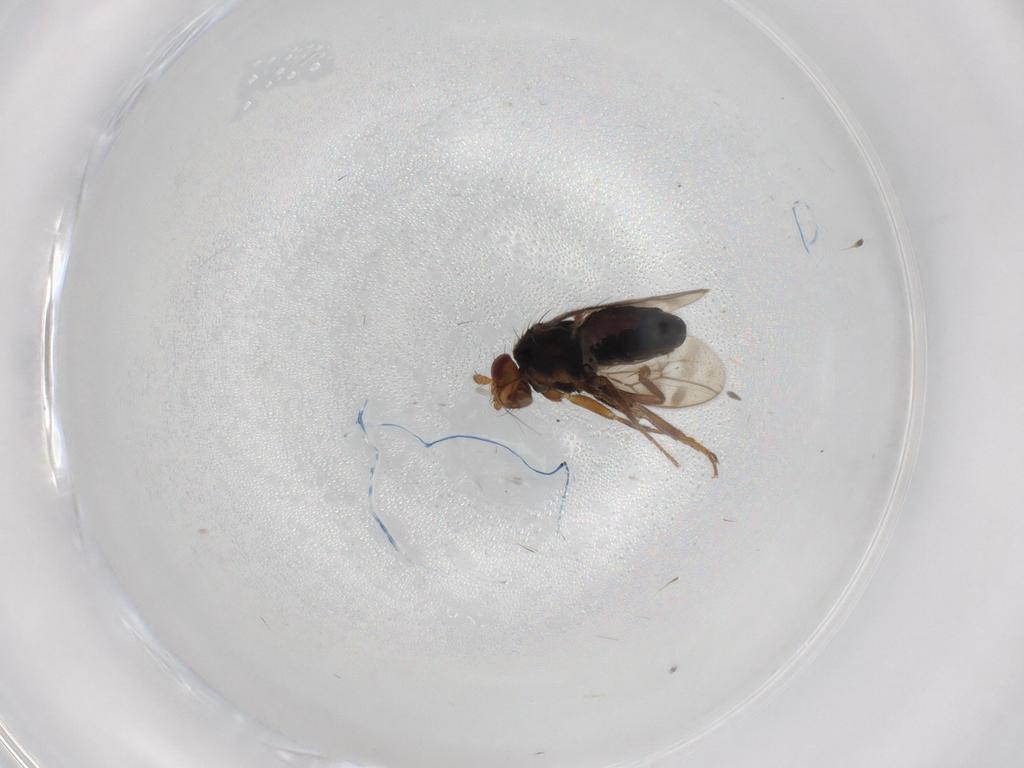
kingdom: Animalia
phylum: Arthropoda
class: Insecta
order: Diptera
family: Sphaeroceridae
